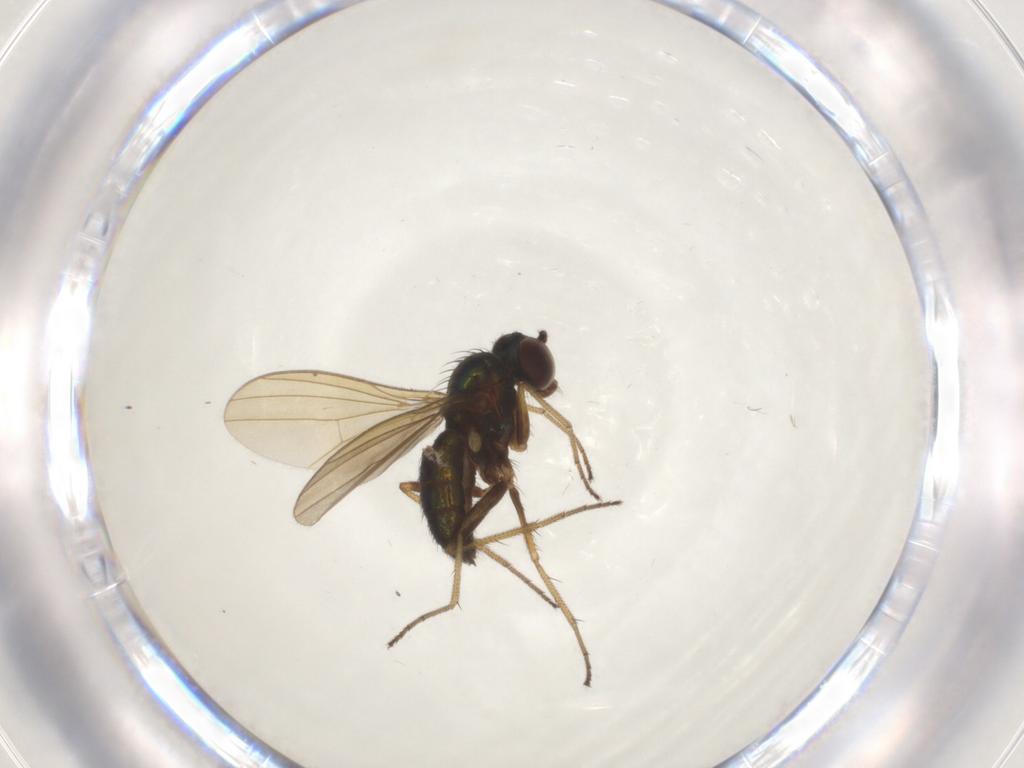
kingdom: Animalia
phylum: Arthropoda
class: Insecta
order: Diptera
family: Dolichopodidae
